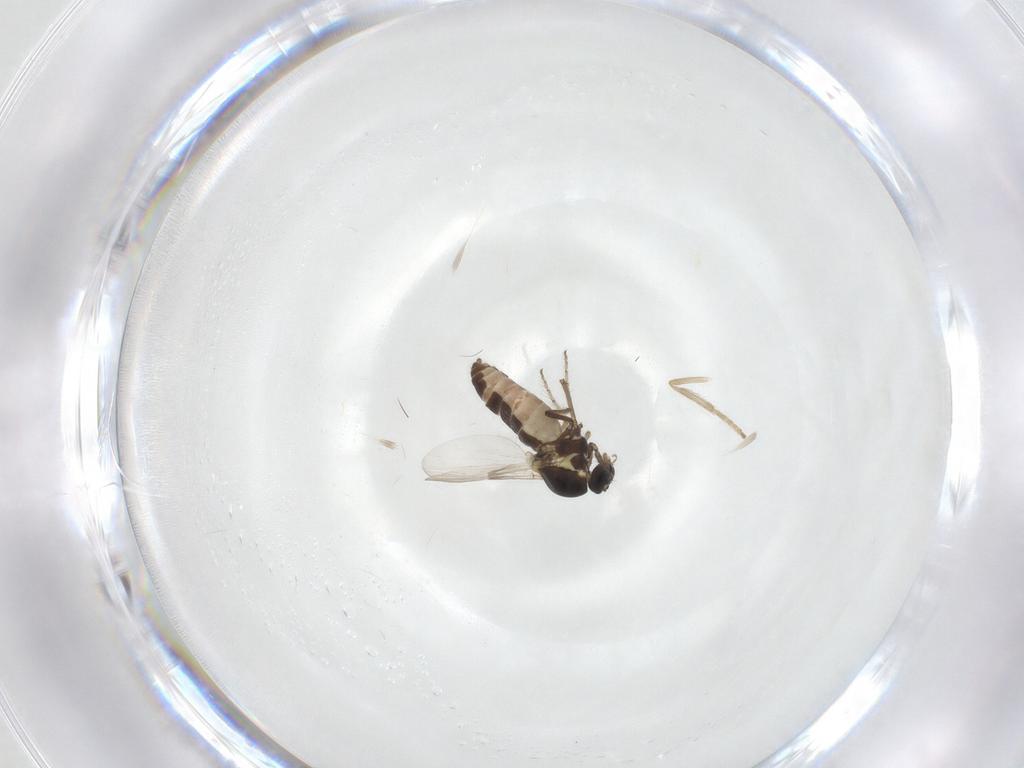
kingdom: Animalia
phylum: Arthropoda
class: Insecta
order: Diptera
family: Ceratopogonidae
